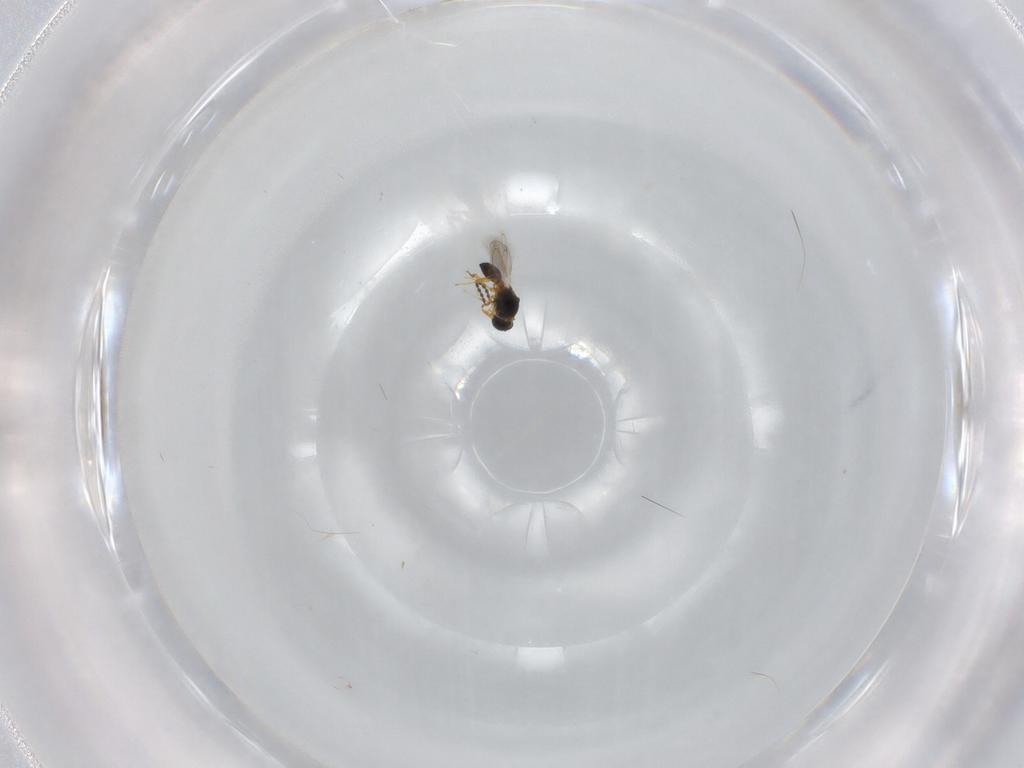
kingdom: Animalia
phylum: Arthropoda
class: Insecta
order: Hymenoptera
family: Platygastridae
